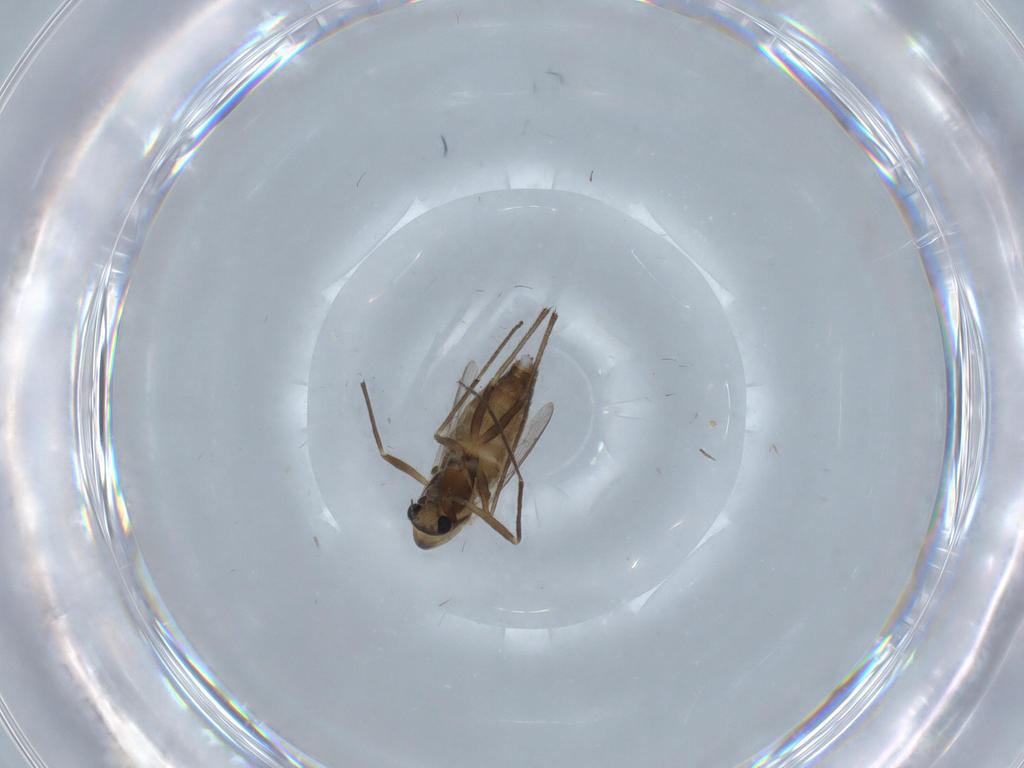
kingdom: Animalia
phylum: Arthropoda
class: Insecta
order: Diptera
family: Chironomidae
